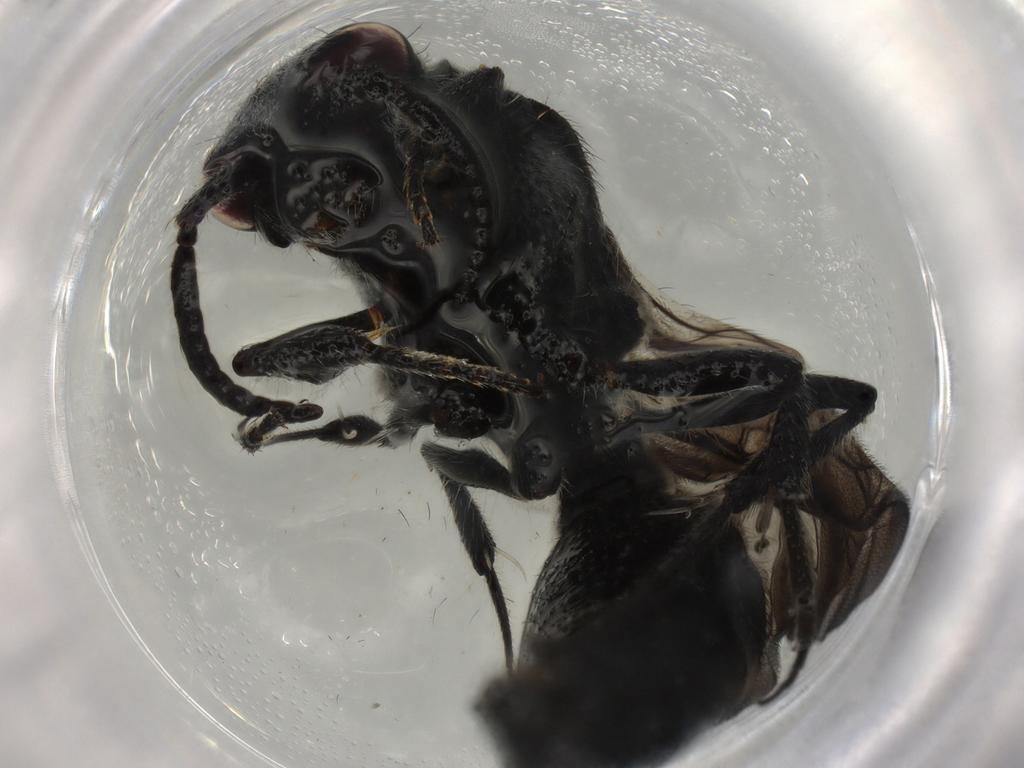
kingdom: Animalia
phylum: Arthropoda
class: Insecta
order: Hymenoptera
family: Formicidae
